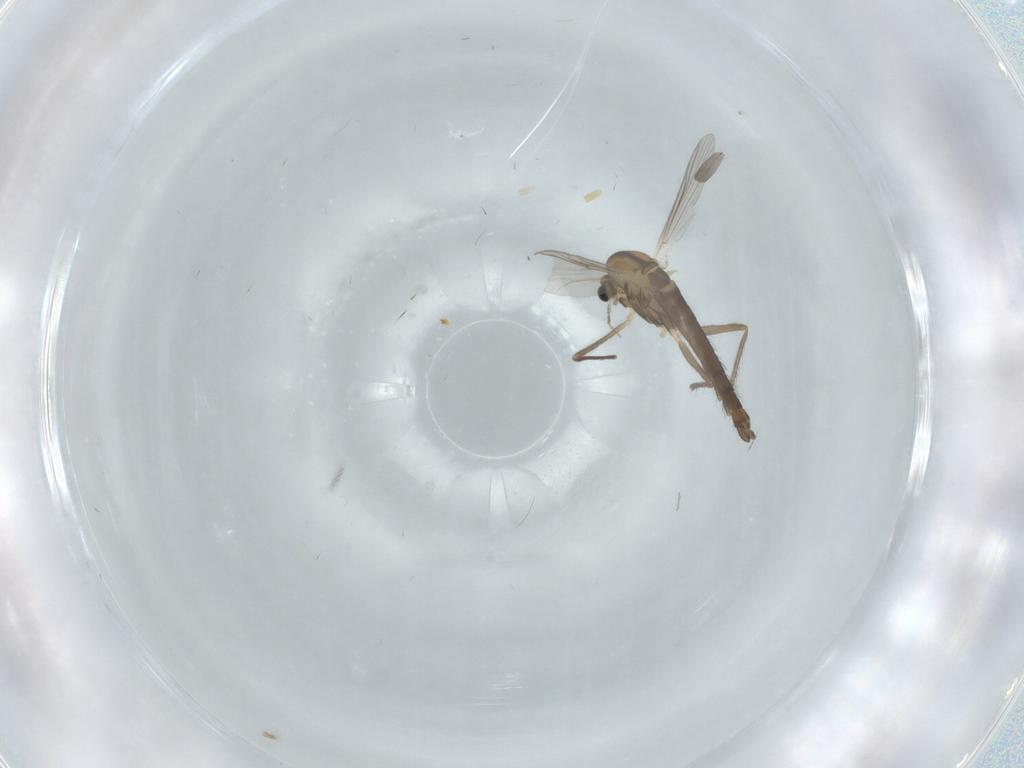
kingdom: Animalia
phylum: Arthropoda
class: Insecta
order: Diptera
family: Chironomidae
